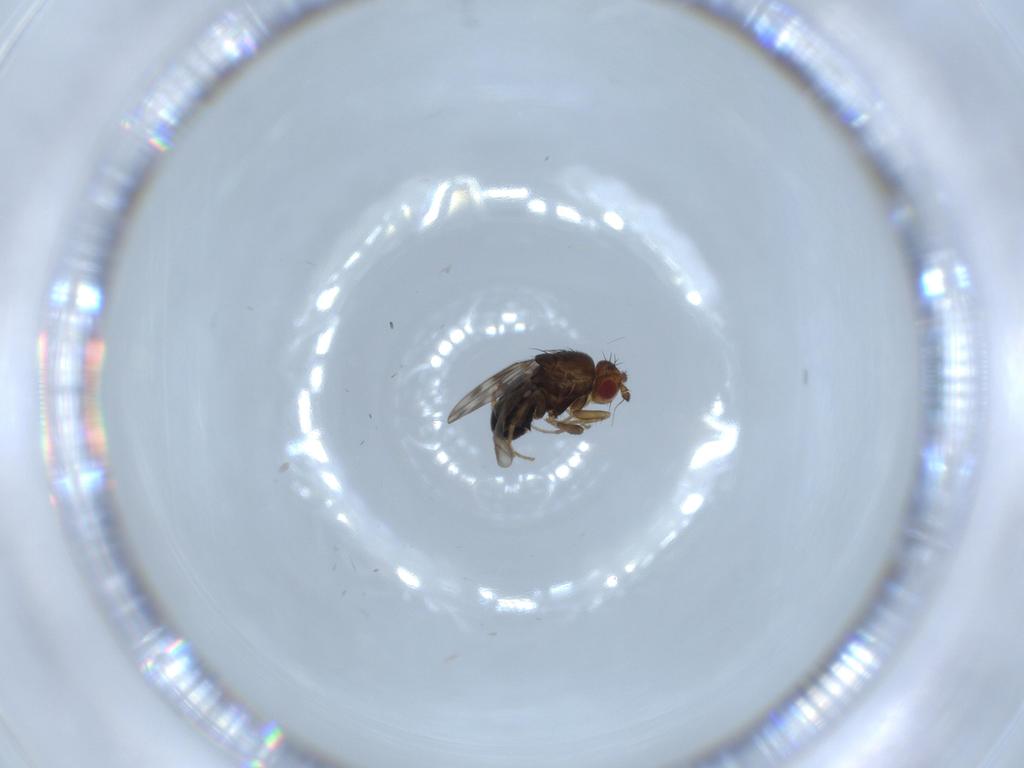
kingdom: Animalia
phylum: Arthropoda
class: Insecta
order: Diptera
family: Sphaeroceridae
